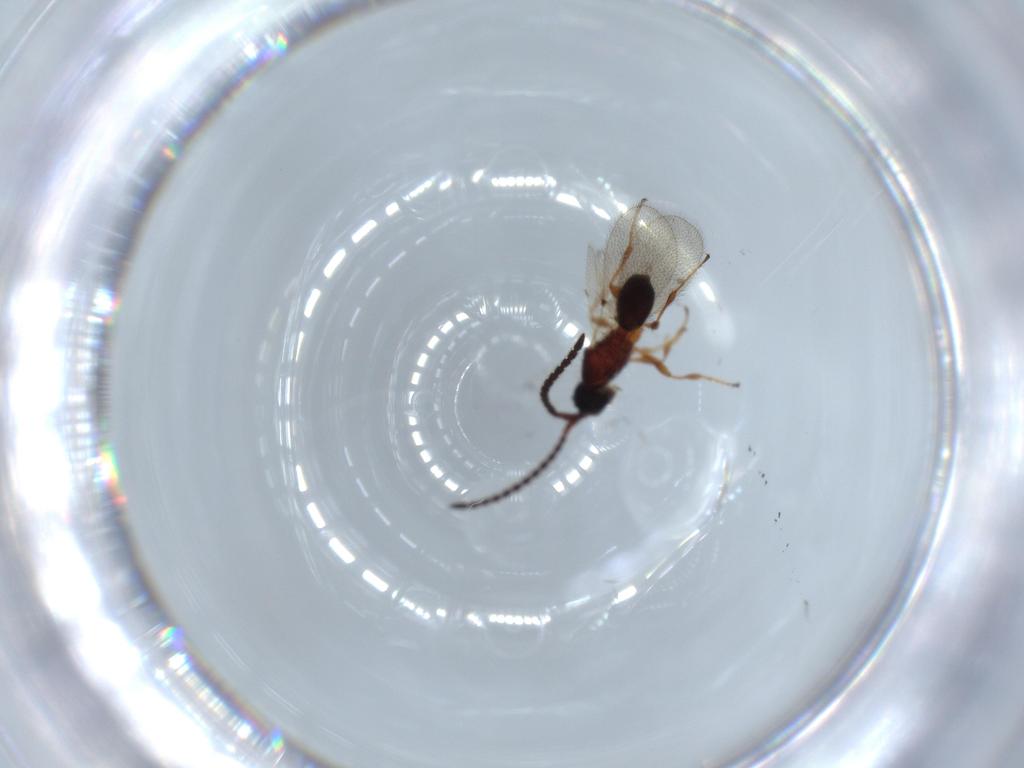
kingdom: Animalia
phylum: Arthropoda
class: Insecta
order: Hymenoptera
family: Diapriidae
